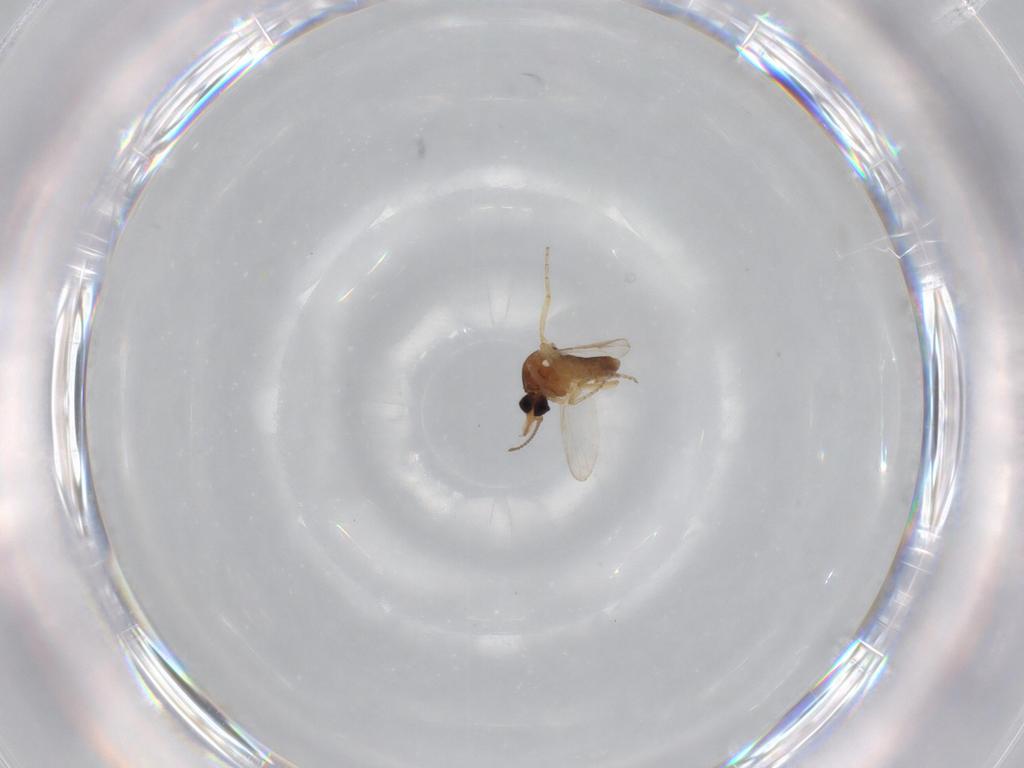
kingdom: Animalia
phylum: Arthropoda
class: Insecta
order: Diptera
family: Ceratopogonidae
